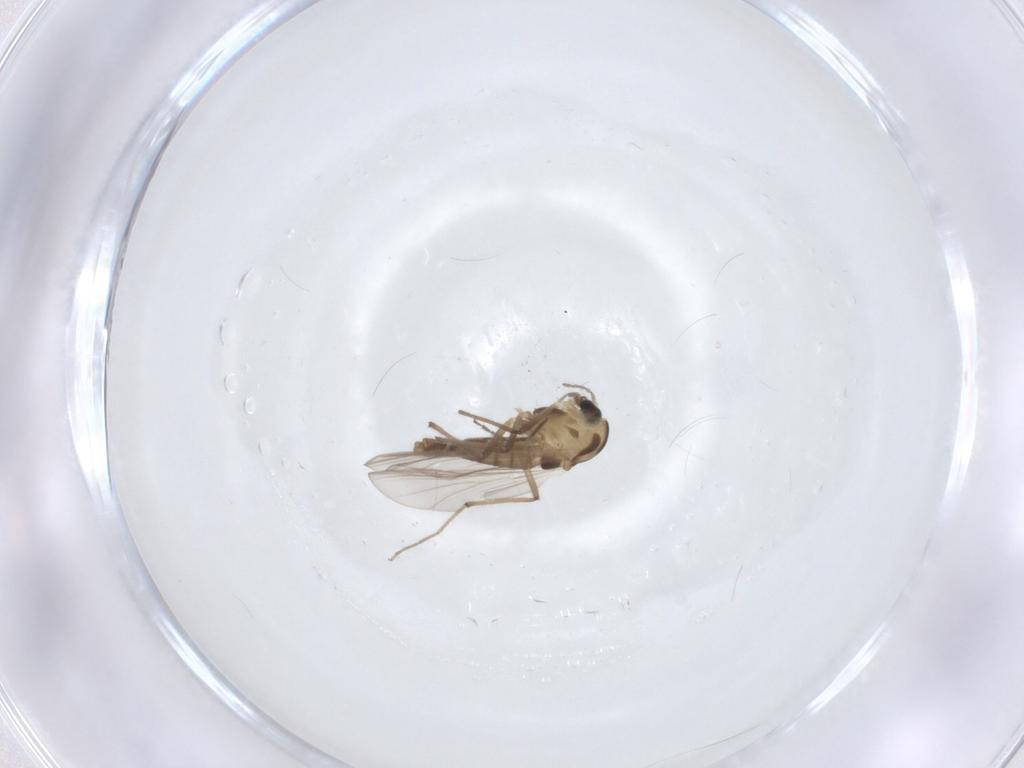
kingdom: Animalia
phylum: Arthropoda
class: Insecta
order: Diptera
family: Chironomidae
